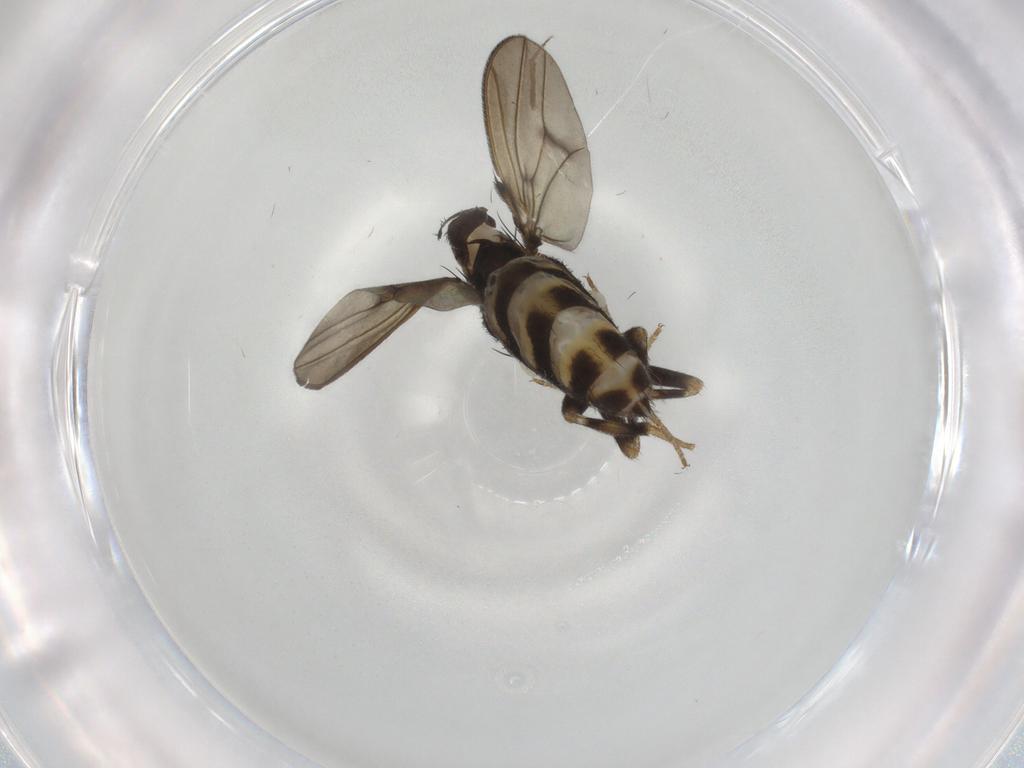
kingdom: Animalia
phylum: Arthropoda
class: Insecta
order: Diptera
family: Drosophilidae
